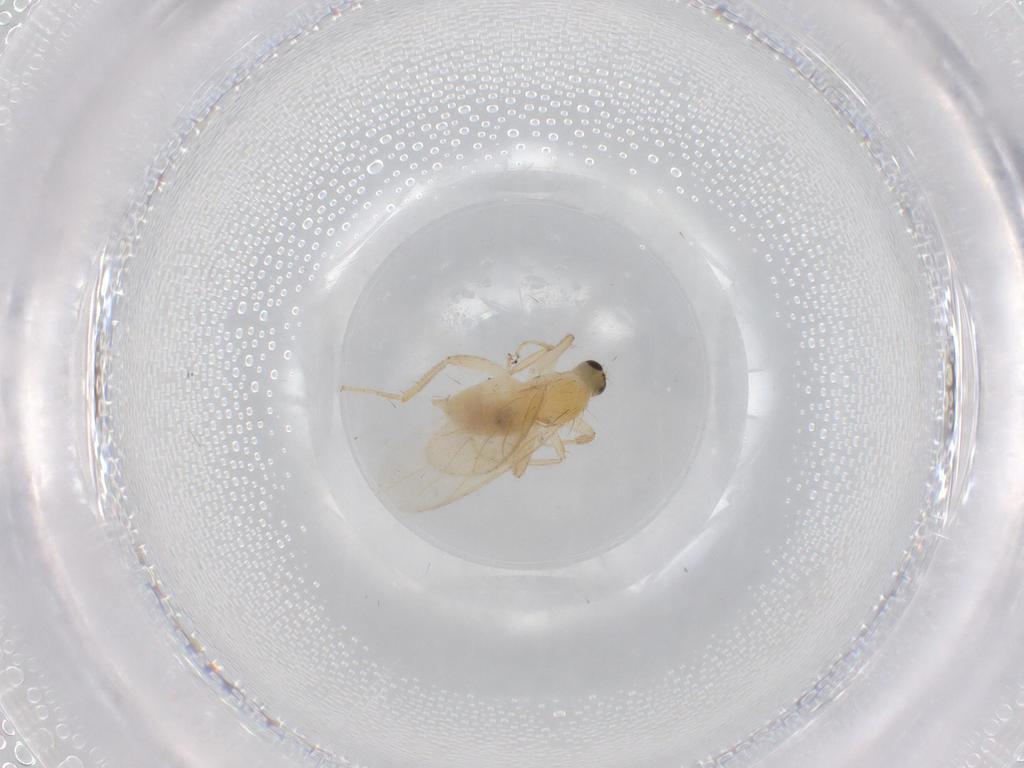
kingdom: Animalia
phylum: Arthropoda
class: Insecta
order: Diptera
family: Hybotidae
